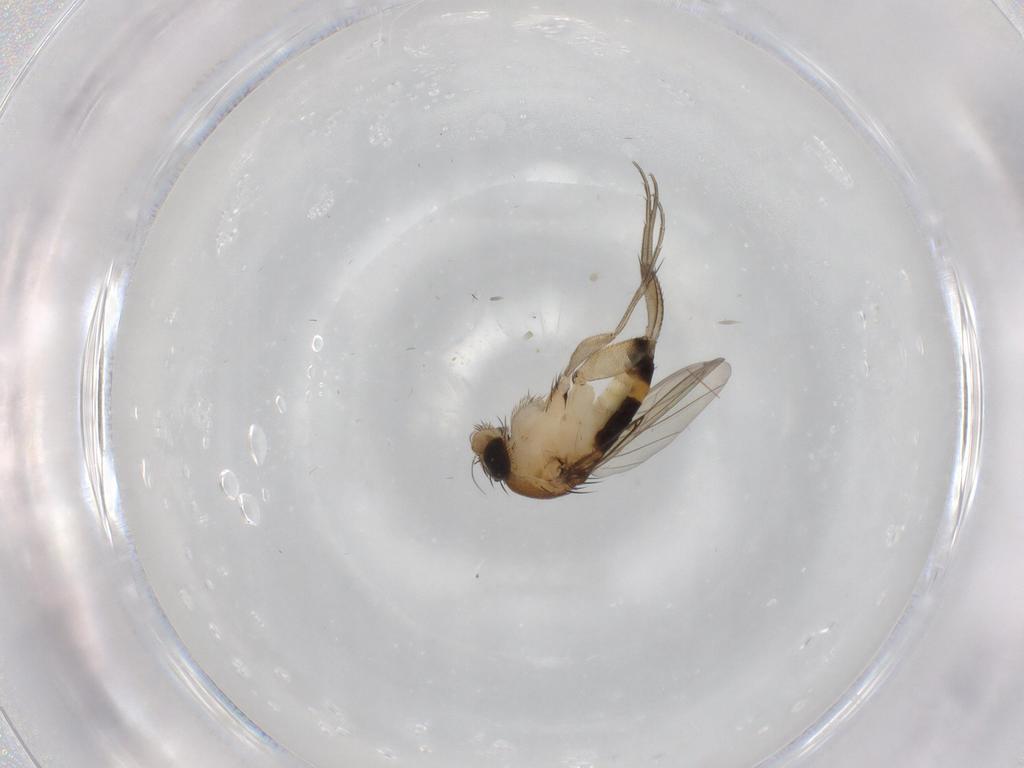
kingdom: Animalia
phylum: Arthropoda
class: Insecta
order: Diptera
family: Phoridae
